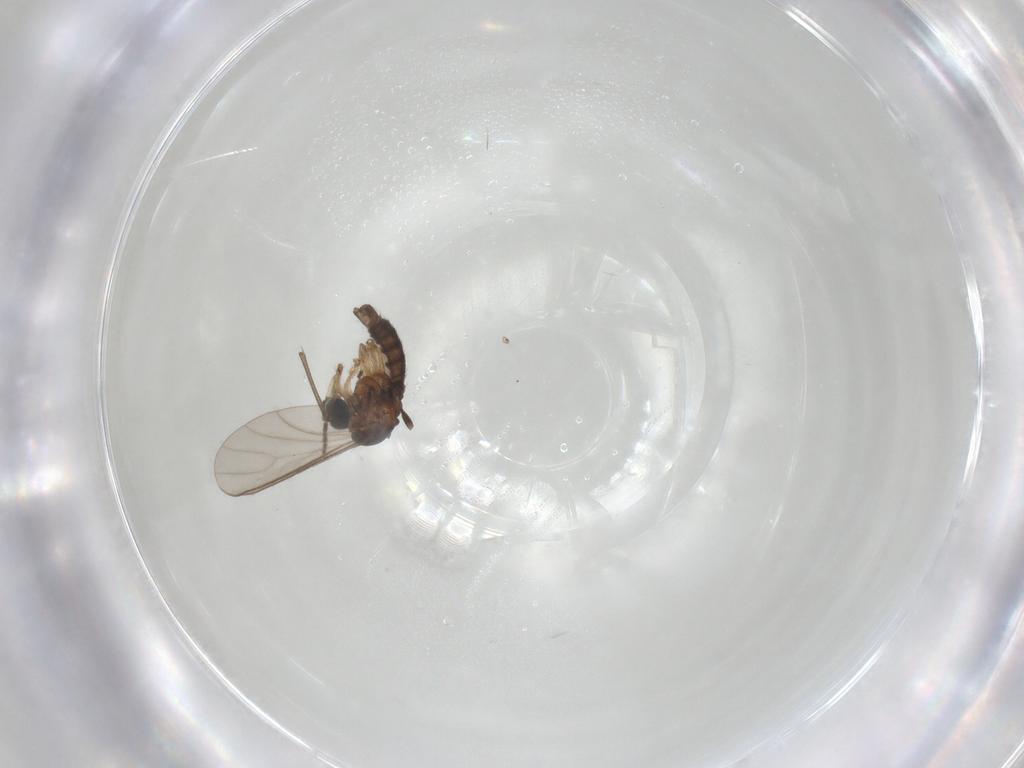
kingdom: Animalia
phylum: Arthropoda
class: Insecta
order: Diptera
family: Sciaridae
